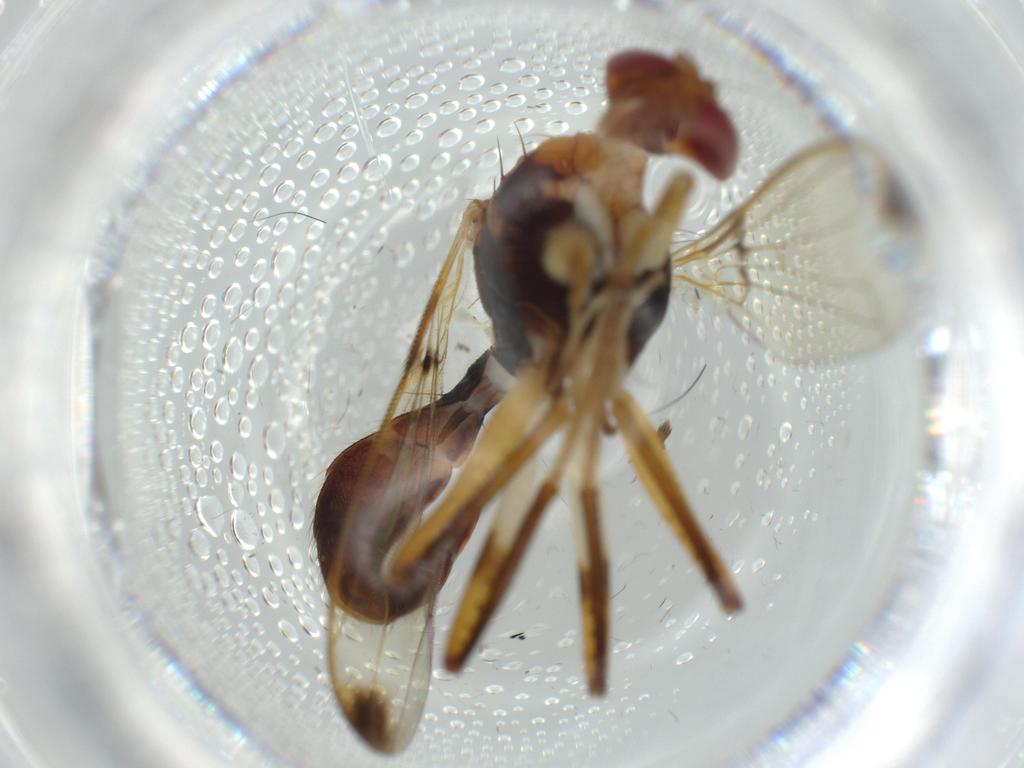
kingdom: Animalia
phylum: Arthropoda
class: Insecta
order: Diptera
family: Richardiidae
